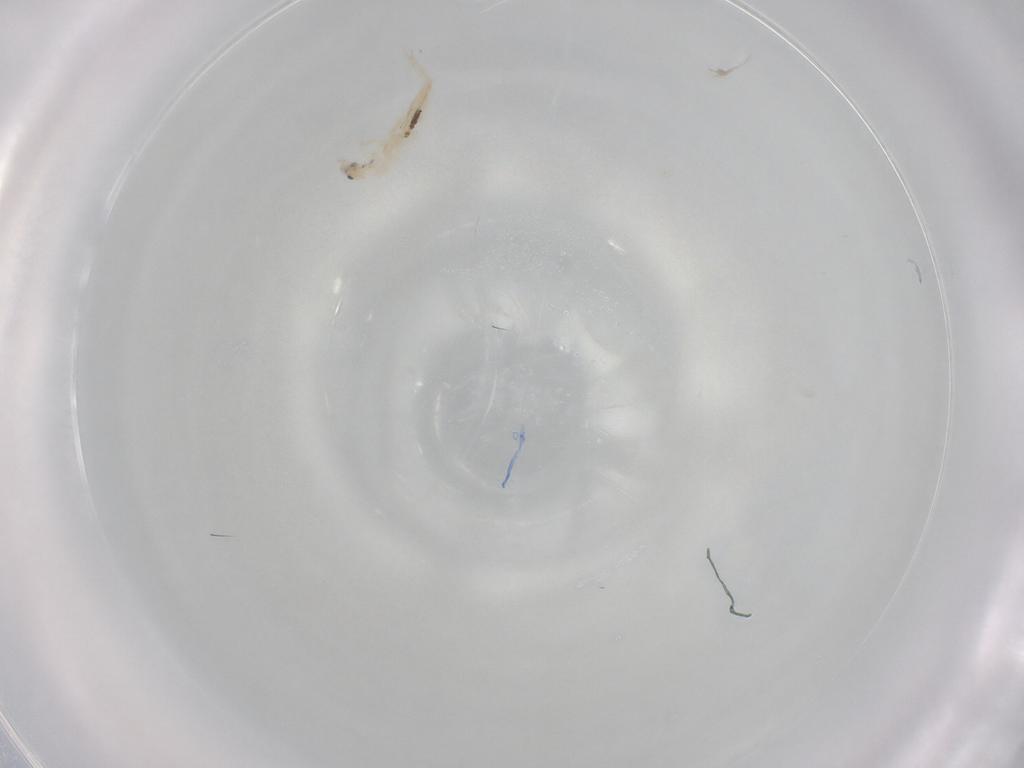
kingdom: Animalia
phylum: Arthropoda
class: Collembola
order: Entomobryomorpha
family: Entomobryidae
